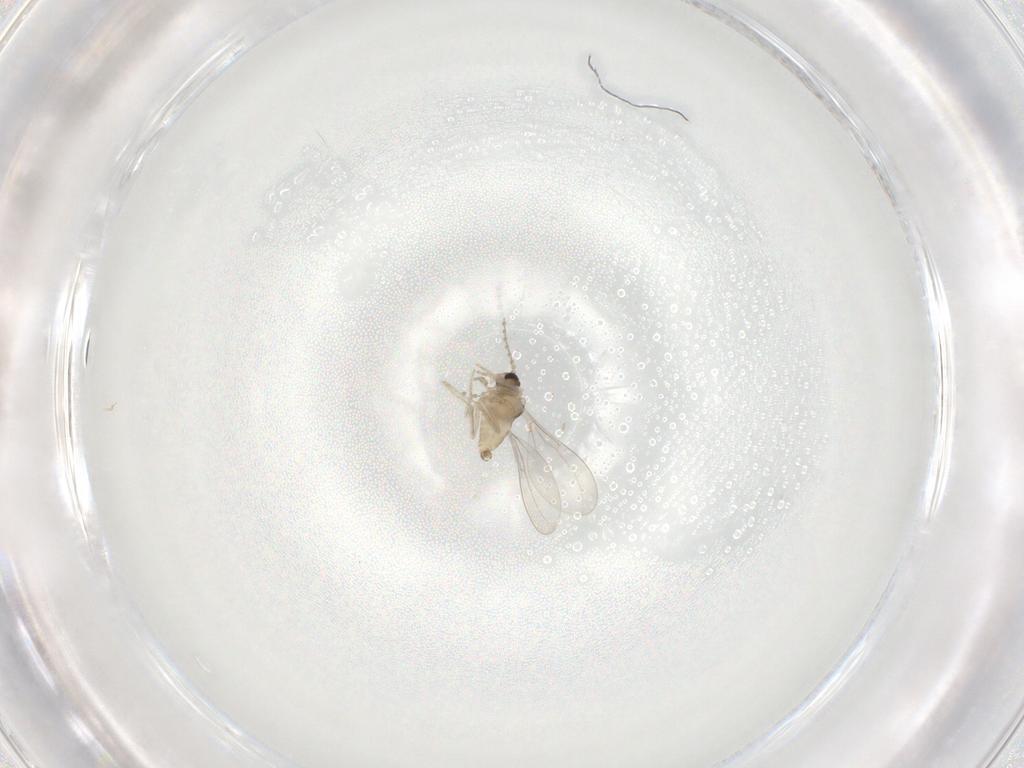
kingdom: Animalia
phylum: Arthropoda
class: Insecta
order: Diptera
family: Cecidomyiidae
